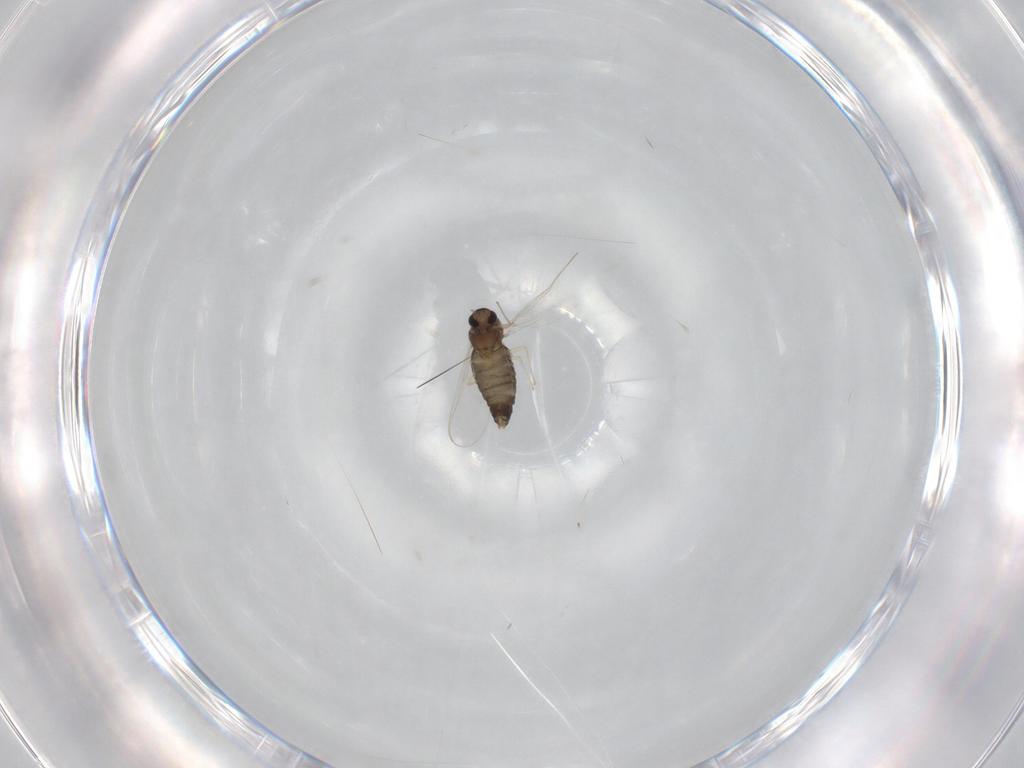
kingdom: Animalia
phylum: Arthropoda
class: Insecta
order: Diptera
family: Chironomidae
